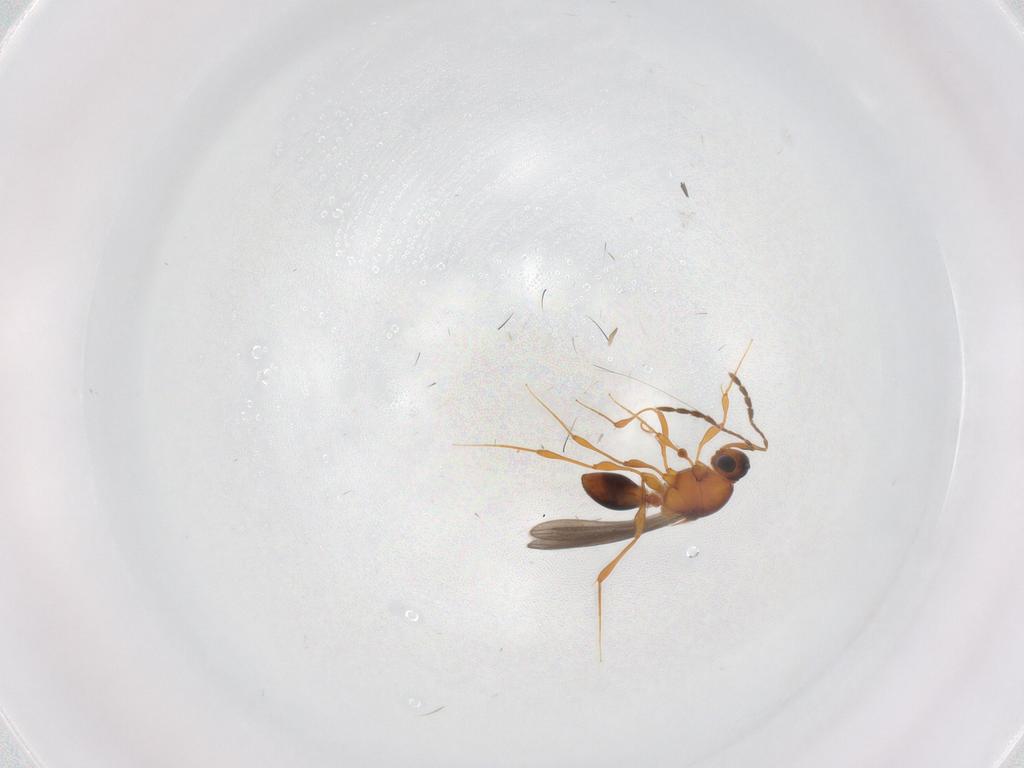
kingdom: Animalia
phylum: Arthropoda
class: Insecta
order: Hymenoptera
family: Platygastridae
